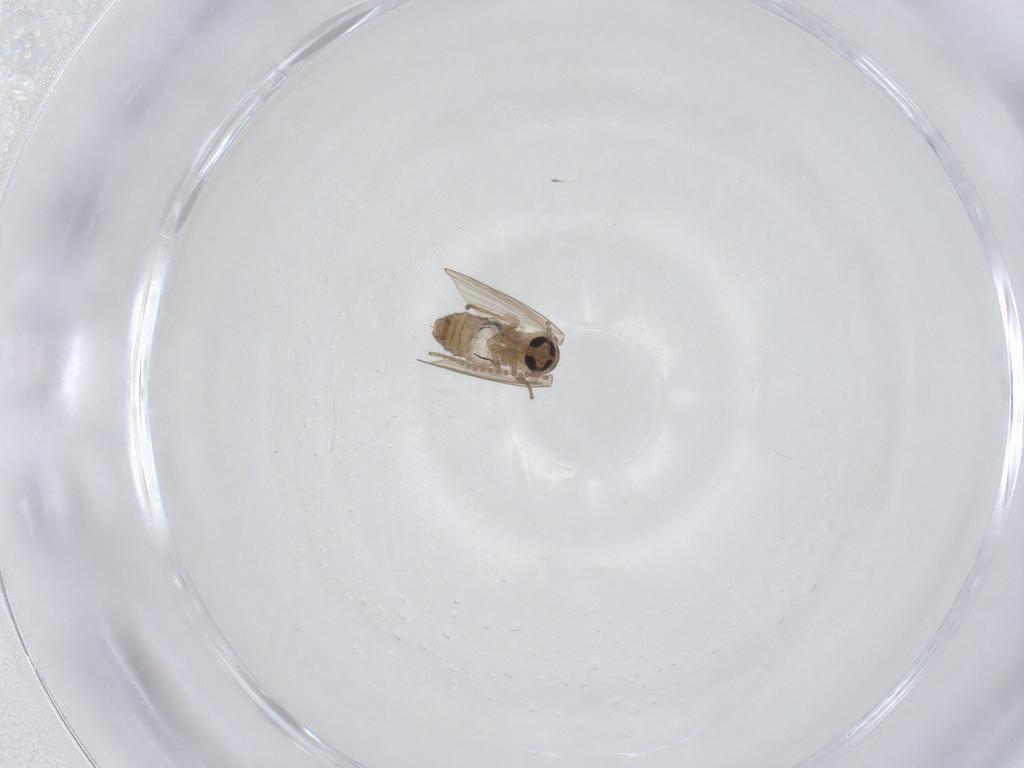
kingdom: Animalia
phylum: Arthropoda
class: Insecta
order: Diptera
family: Psychodidae
